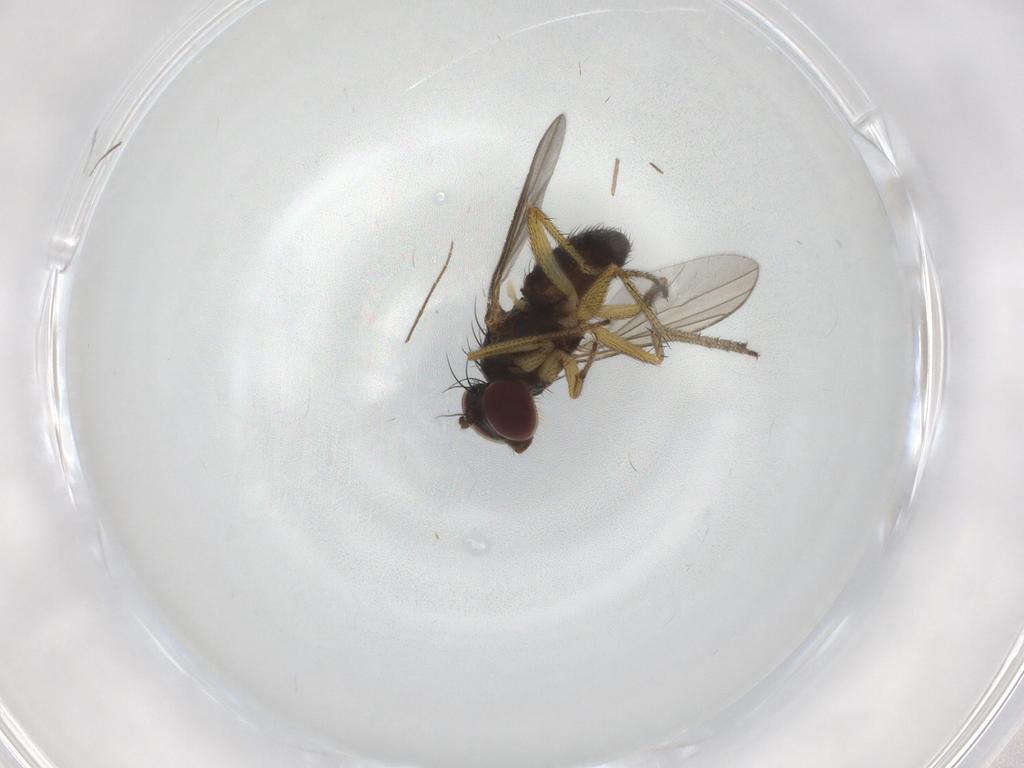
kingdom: Animalia
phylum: Arthropoda
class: Insecta
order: Diptera
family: Chironomidae
